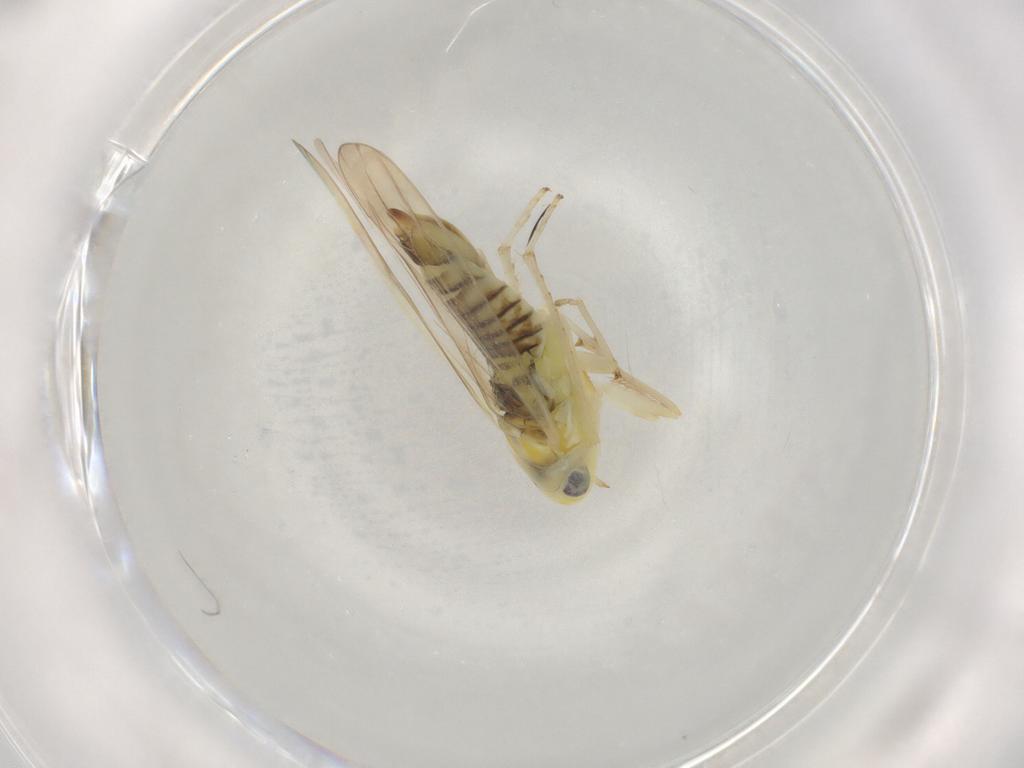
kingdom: Animalia
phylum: Arthropoda
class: Insecta
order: Hemiptera
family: Cicadellidae
